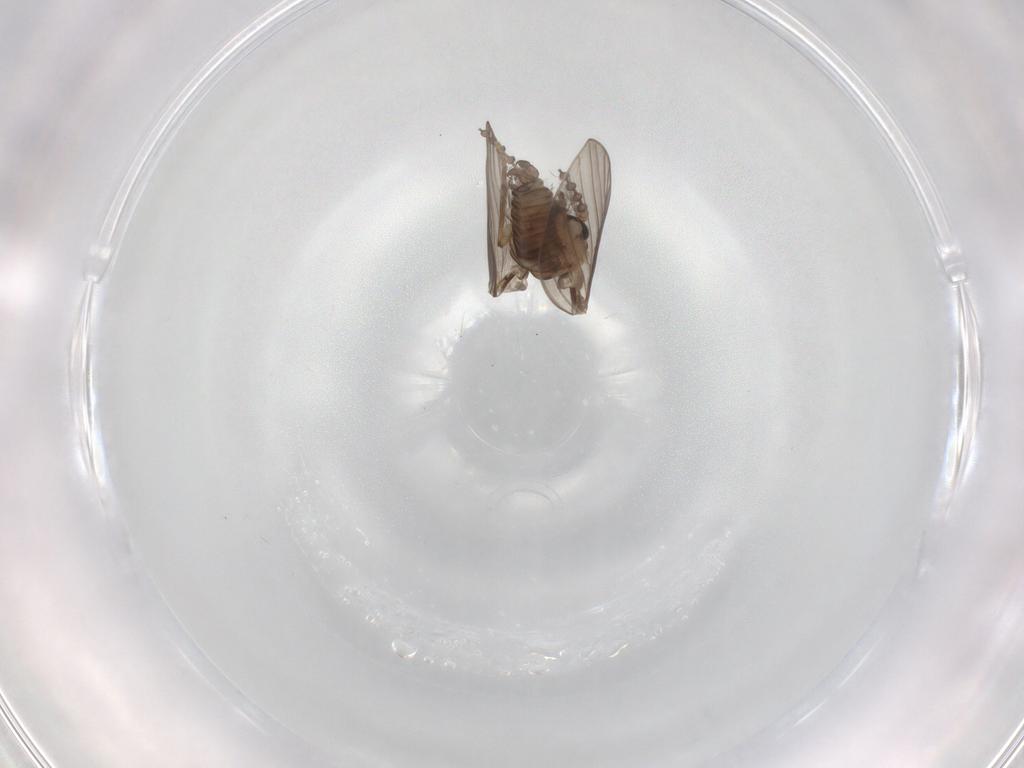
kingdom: Animalia
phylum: Arthropoda
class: Insecta
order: Diptera
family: Psychodidae
